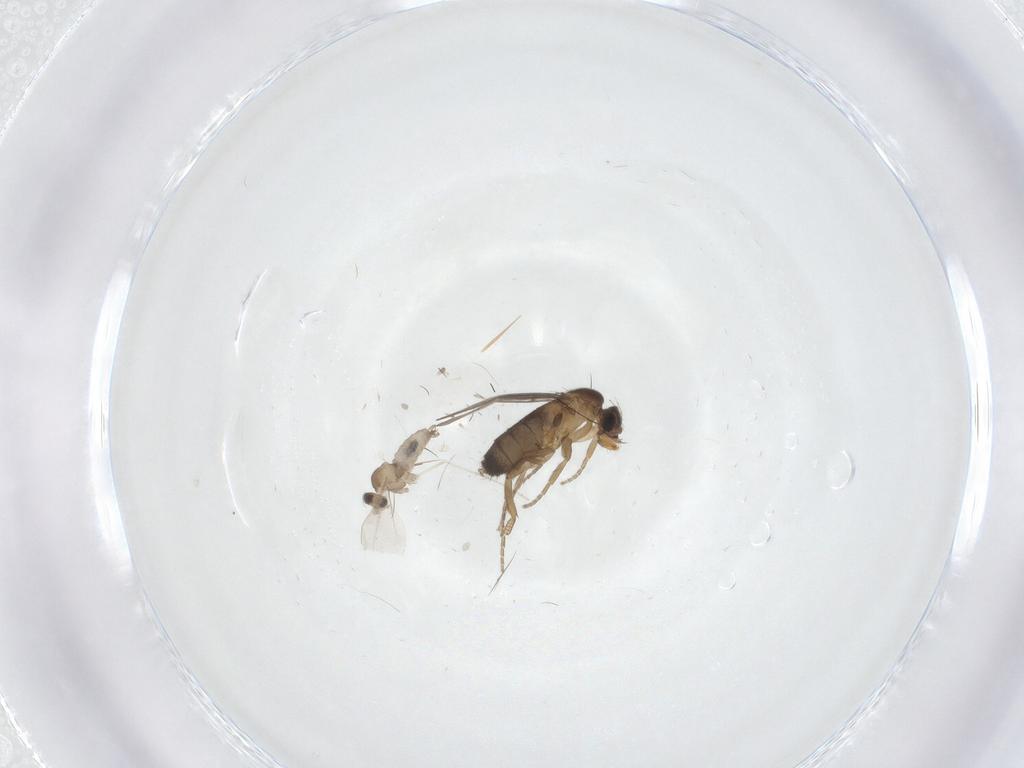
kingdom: Animalia
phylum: Arthropoda
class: Insecta
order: Diptera
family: Cecidomyiidae
